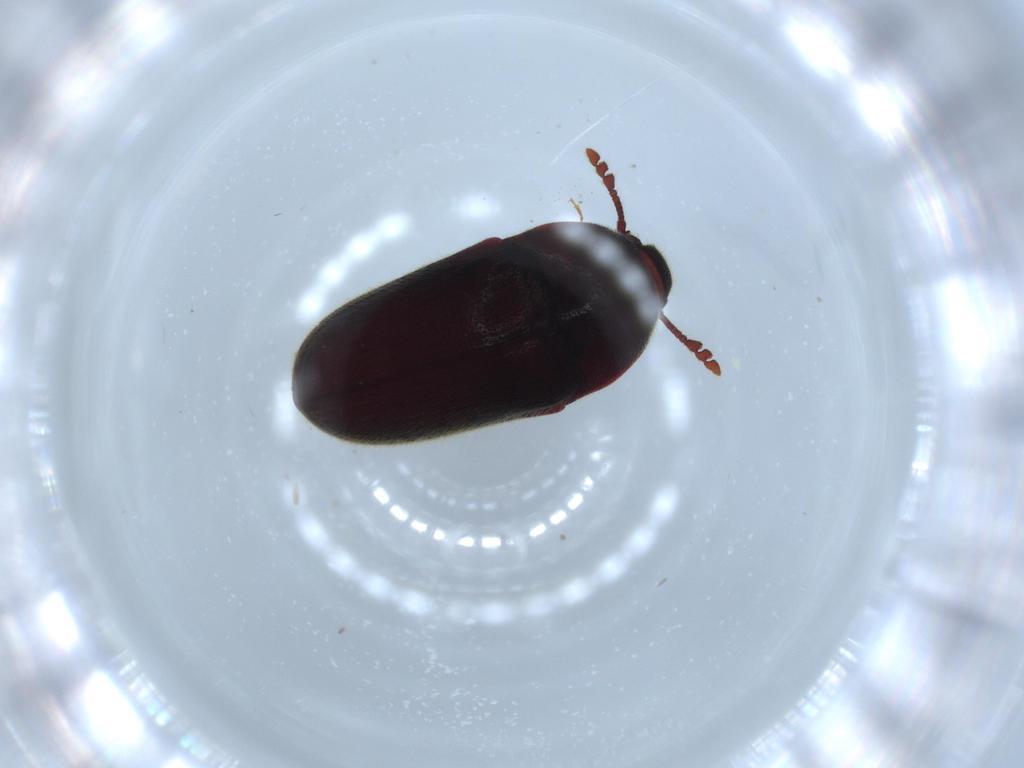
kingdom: Animalia
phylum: Arthropoda
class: Insecta
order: Coleoptera
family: Throscidae
